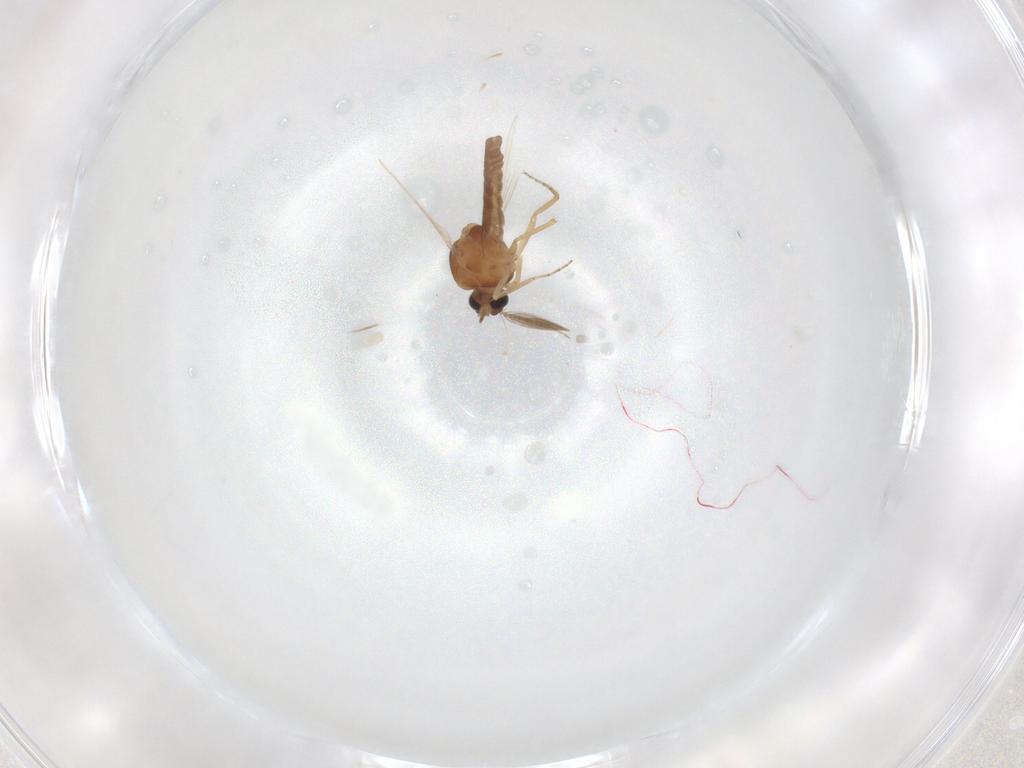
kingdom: Animalia
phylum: Arthropoda
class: Insecta
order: Diptera
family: Ceratopogonidae
